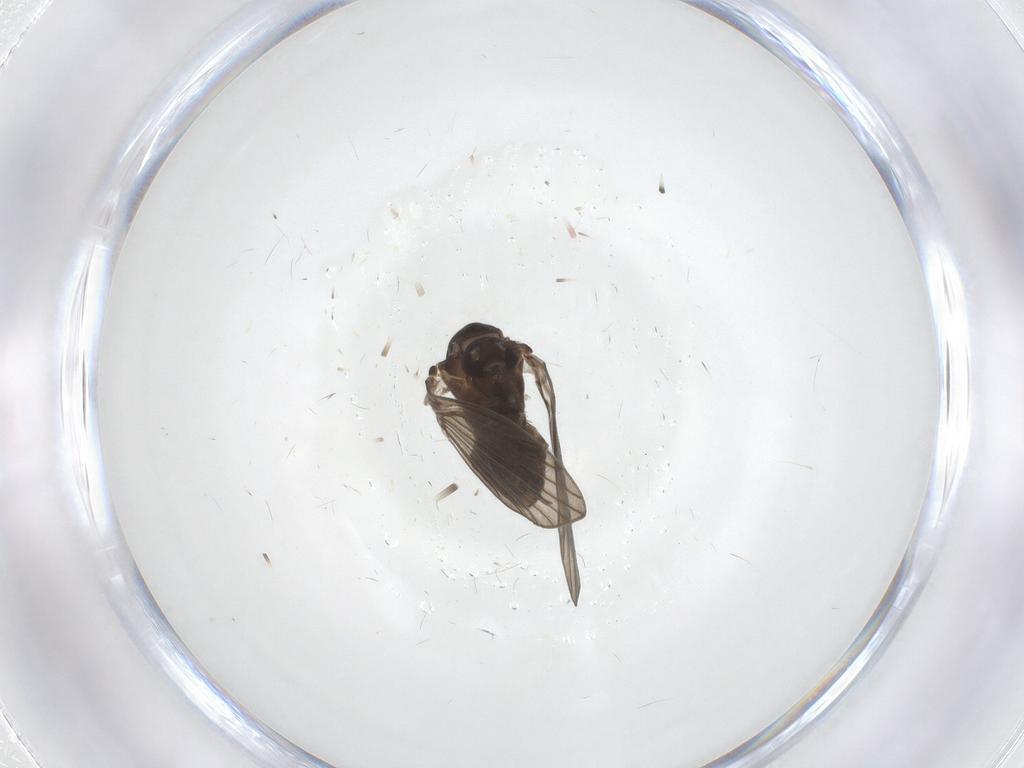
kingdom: Animalia
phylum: Arthropoda
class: Insecta
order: Diptera
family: Psychodidae
